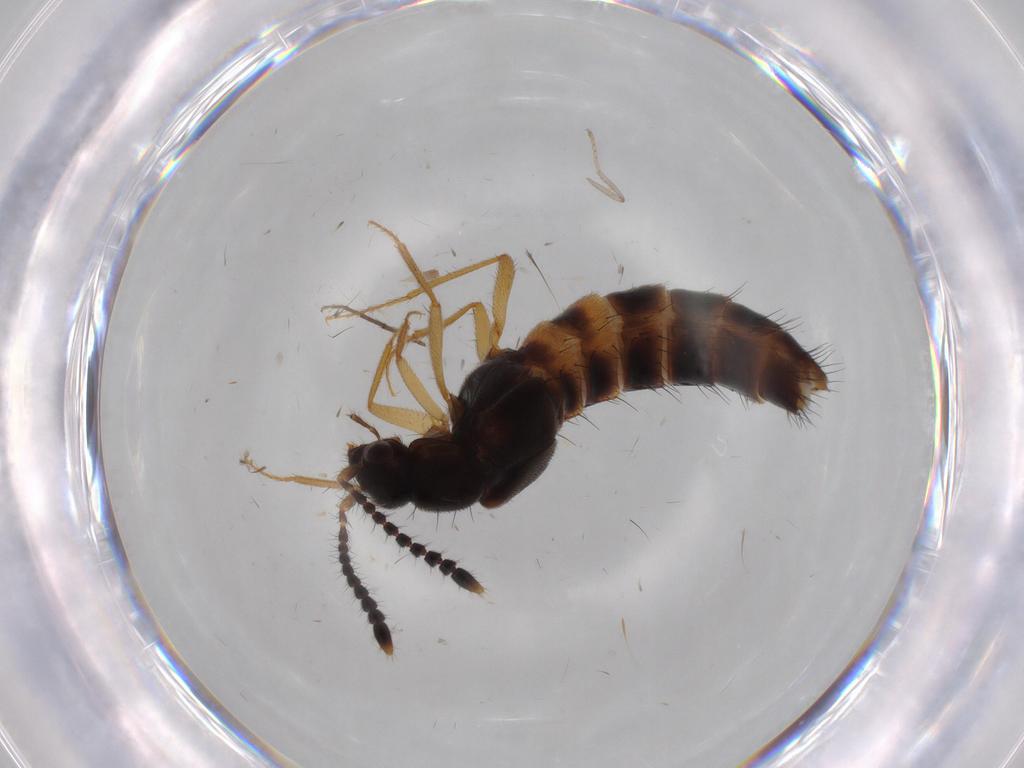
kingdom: Animalia
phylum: Arthropoda
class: Insecta
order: Coleoptera
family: Staphylinidae
